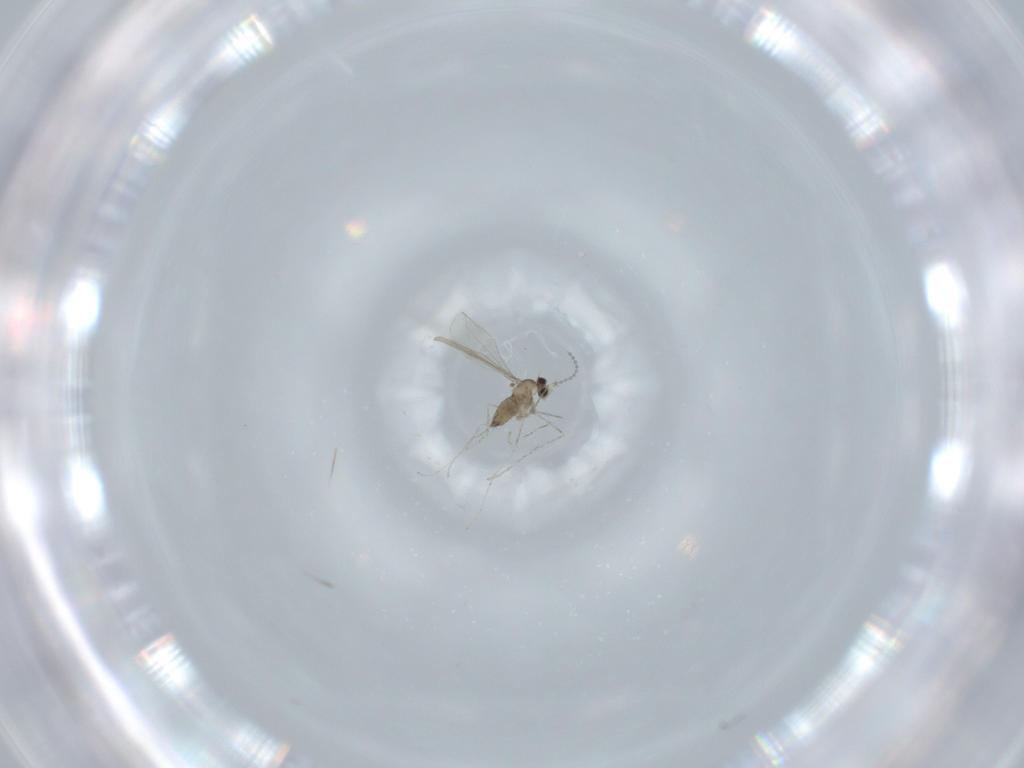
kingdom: Animalia
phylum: Arthropoda
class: Insecta
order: Diptera
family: Cecidomyiidae
